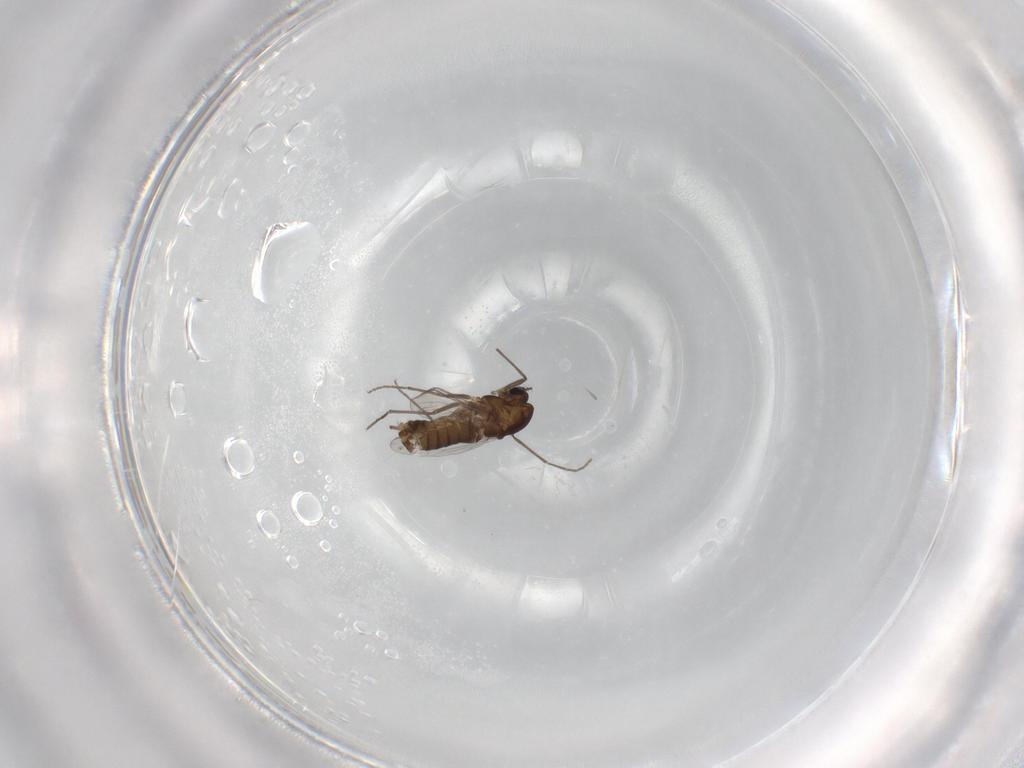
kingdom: Animalia
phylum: Arthropoda
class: Insecta
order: Diptera
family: Chironomidae
